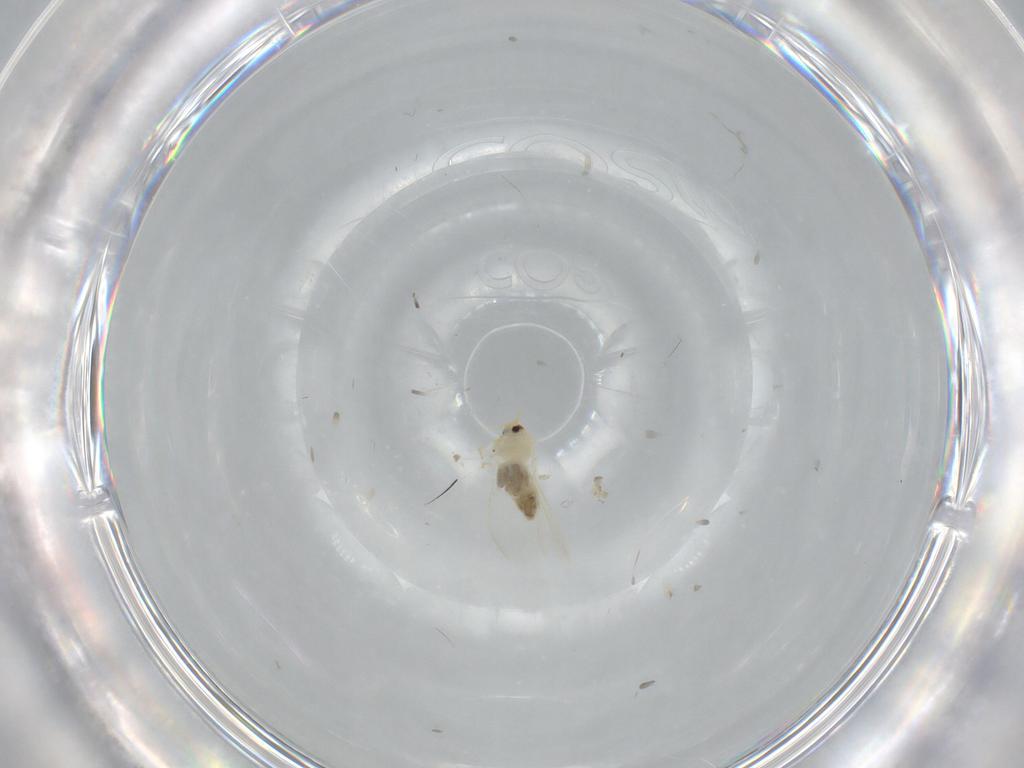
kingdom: Animalia
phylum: Arthropoda
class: Insecta
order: Hemiptera
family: Aleyrodidae
